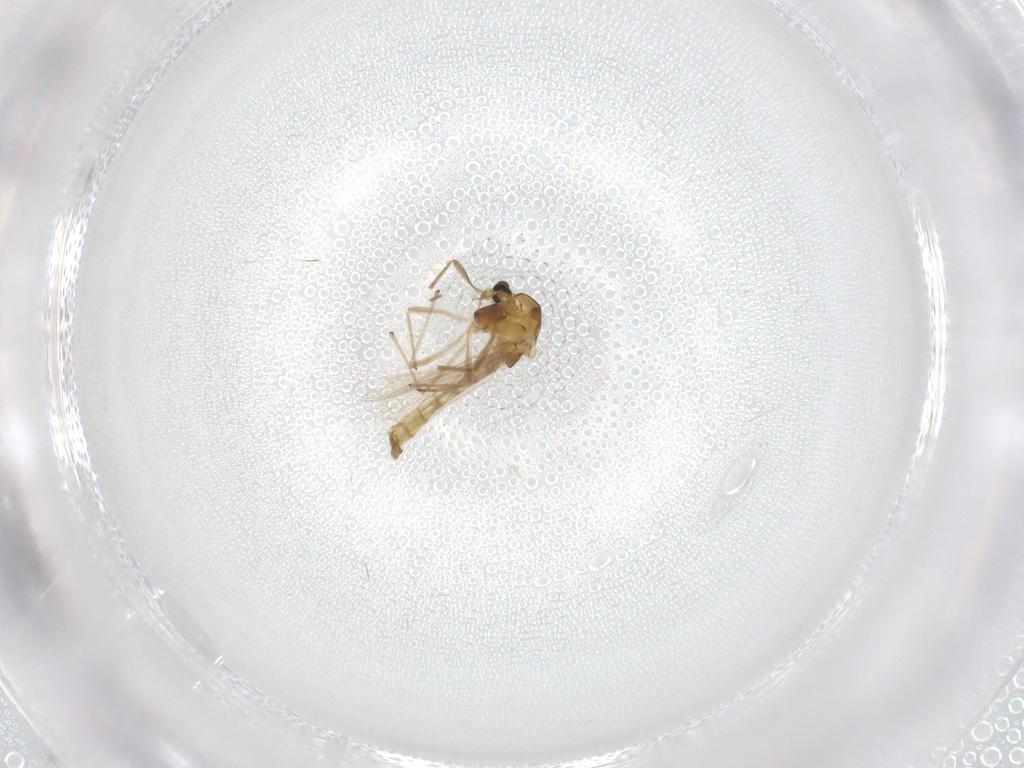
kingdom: Animalia
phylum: Arthropoda
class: Insecta
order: Diptera
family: Chironomidae
